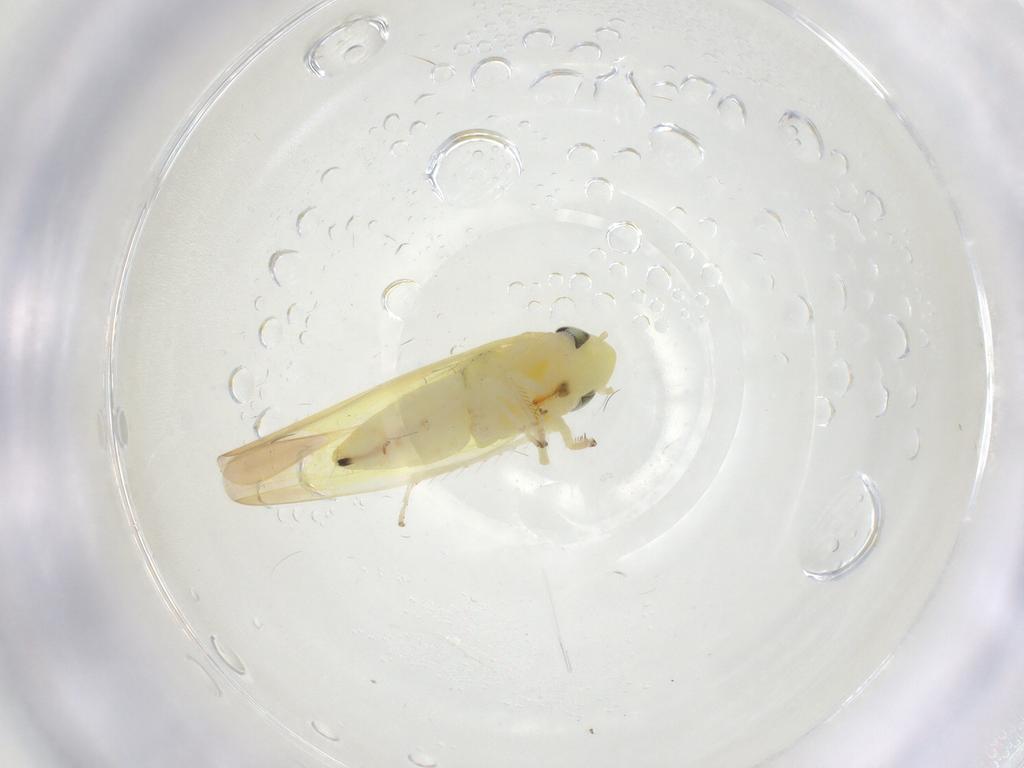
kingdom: Animalia
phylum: Arthropoda
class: Insecta
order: Hemiptera
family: Cicadellidae
